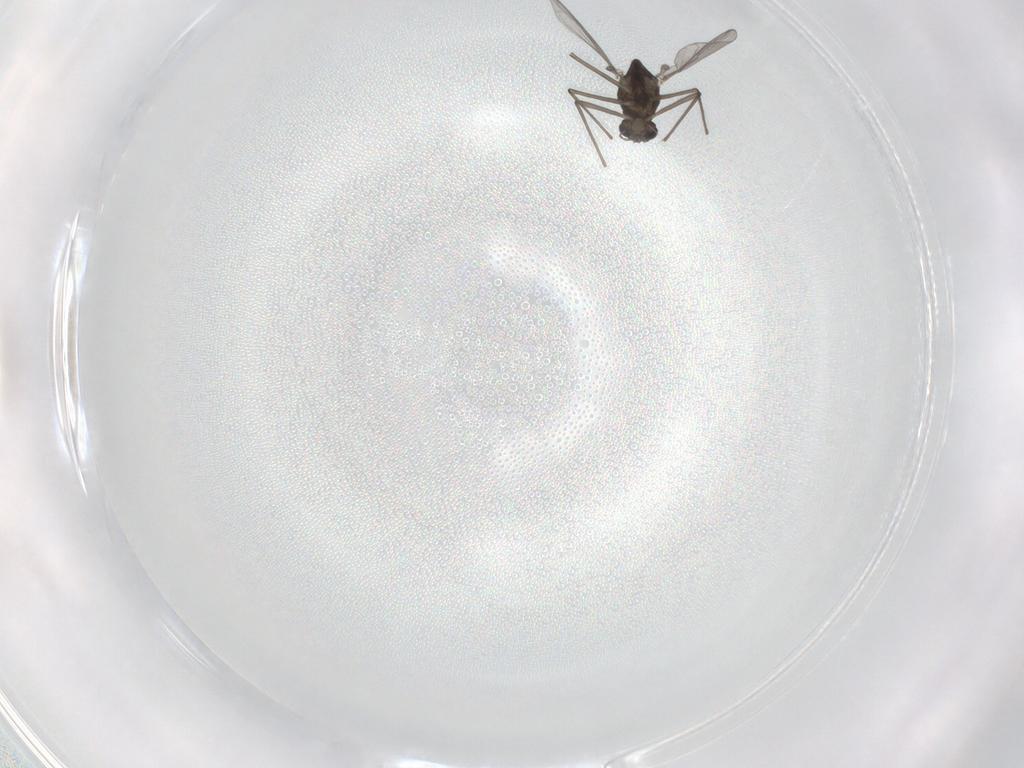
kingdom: Animalia
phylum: Arthropoda
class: Insecta
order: Diptera
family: Chironomidae
